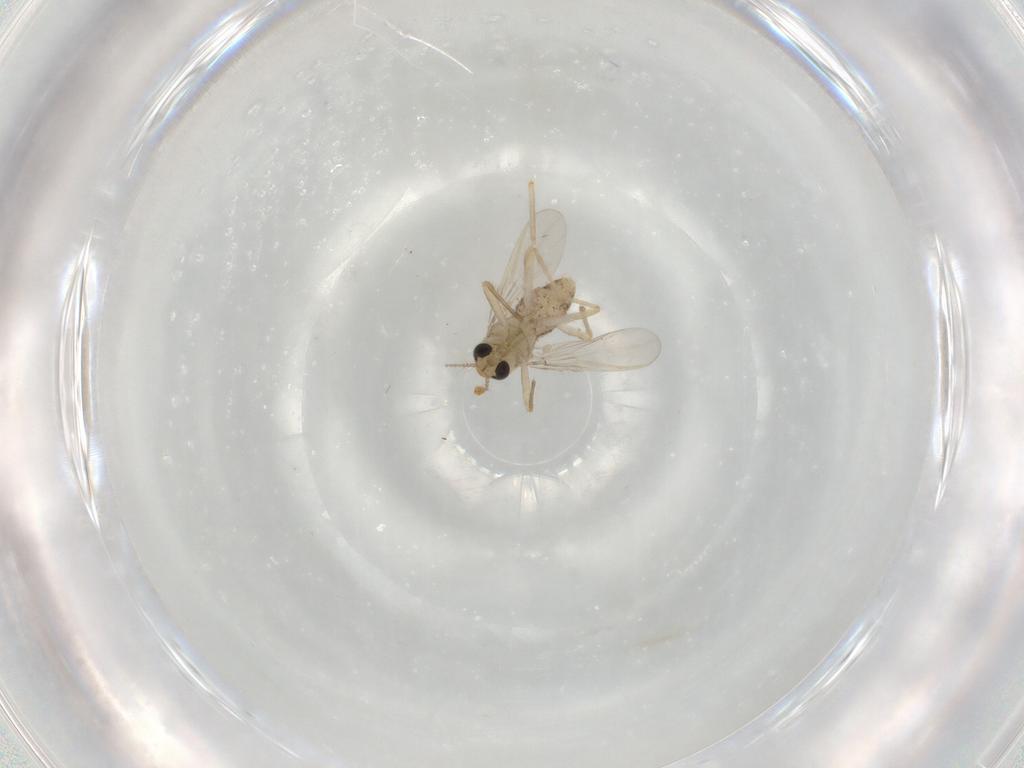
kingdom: Animalia
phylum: Arthropoda
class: Insecta
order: Diptera
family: Chironomidae
